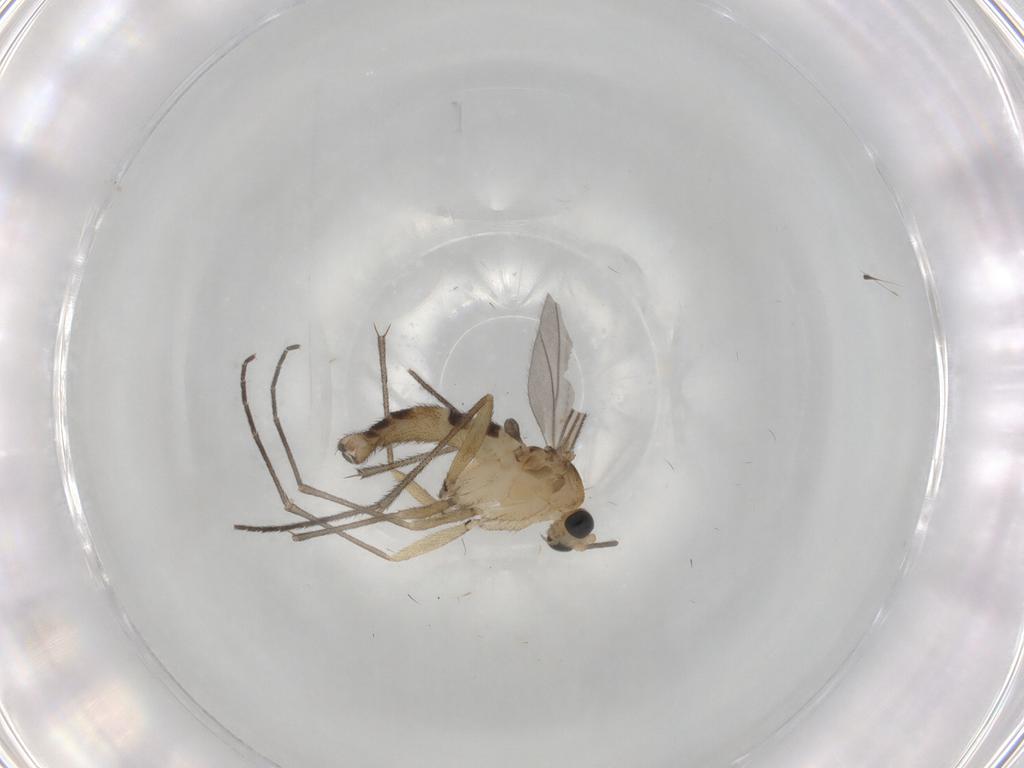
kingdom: Animalia
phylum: Arthropoda
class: Insecta
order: Diptera
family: Sciaridae
